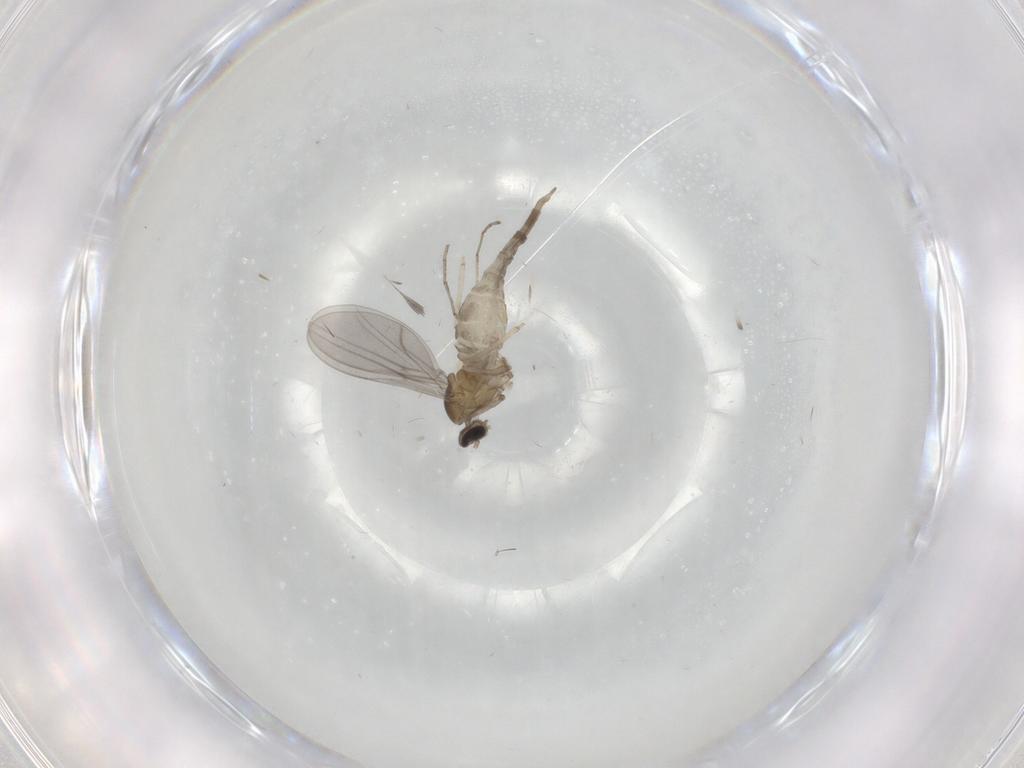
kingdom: Animalia
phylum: Arthropoda
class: Insecta
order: Diptera
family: Cecidomyiidae
